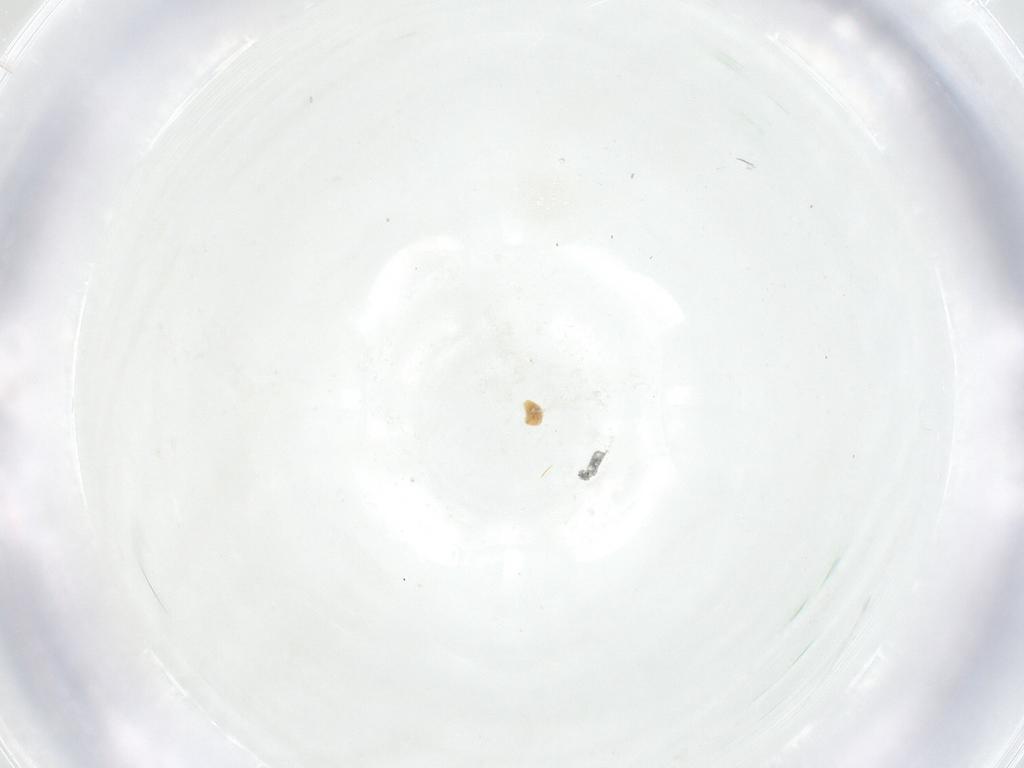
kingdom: Animalia
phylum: Arthropoda
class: Insecta
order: Diptera
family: Fergusoninidae
